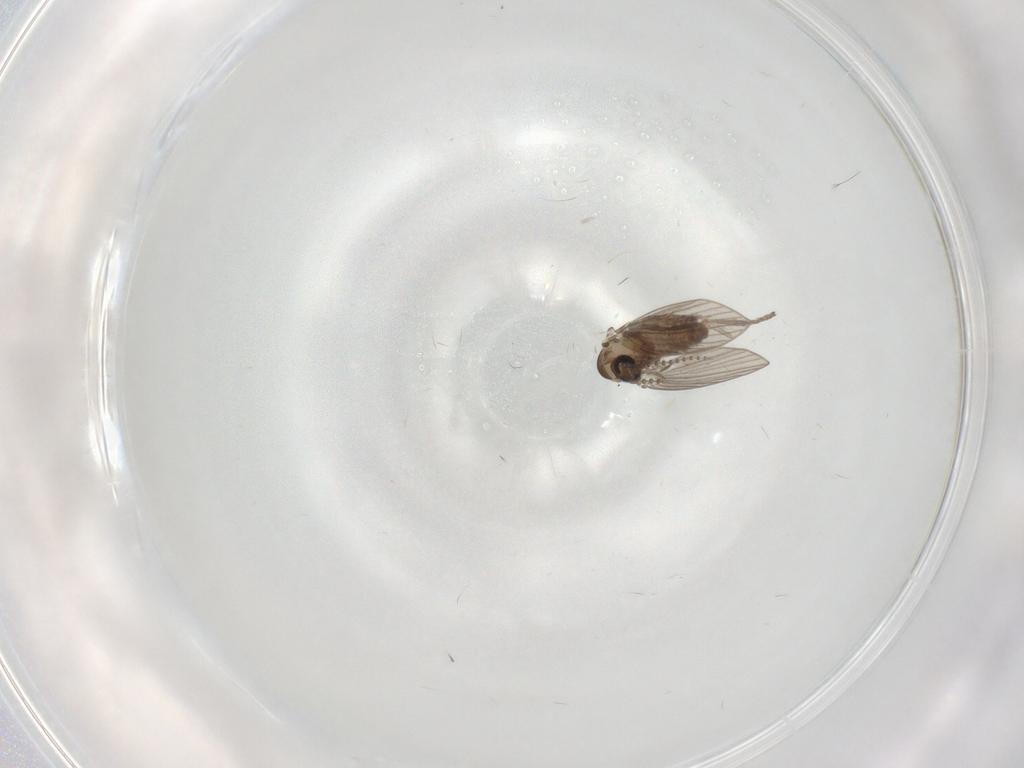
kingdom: Animalia
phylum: Arthropoda
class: Insecta
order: Diptera
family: Psychodidae
